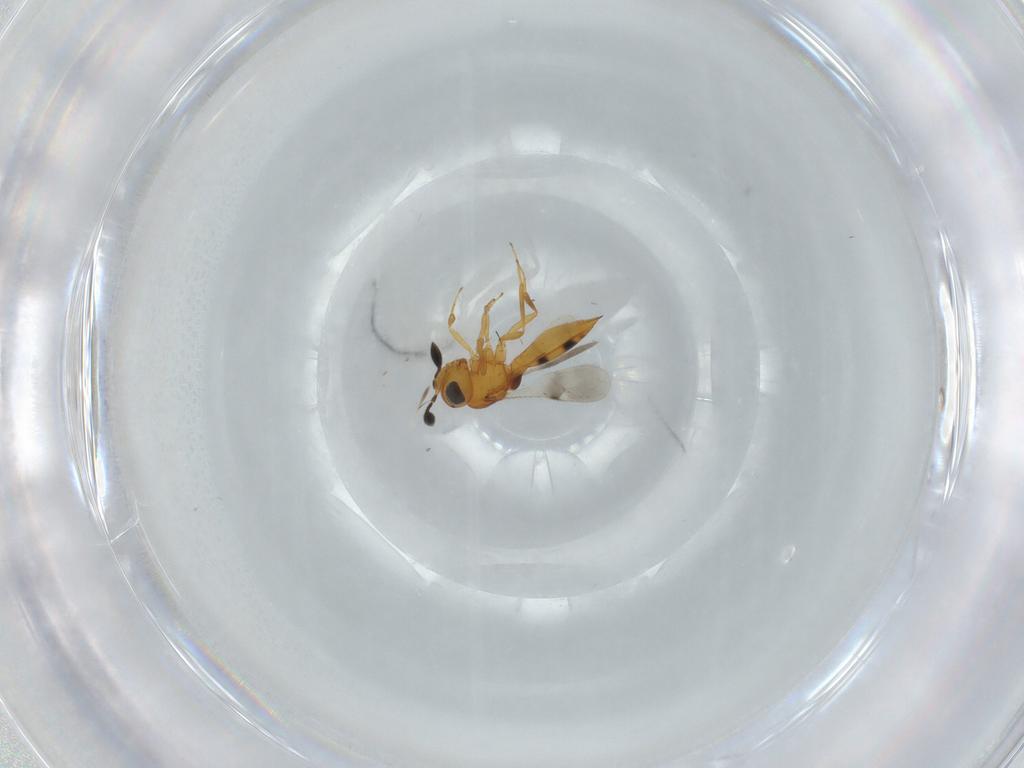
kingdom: Animalia
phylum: Arthropoda
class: Insecta
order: Hymenoptera
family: Scelionidae
